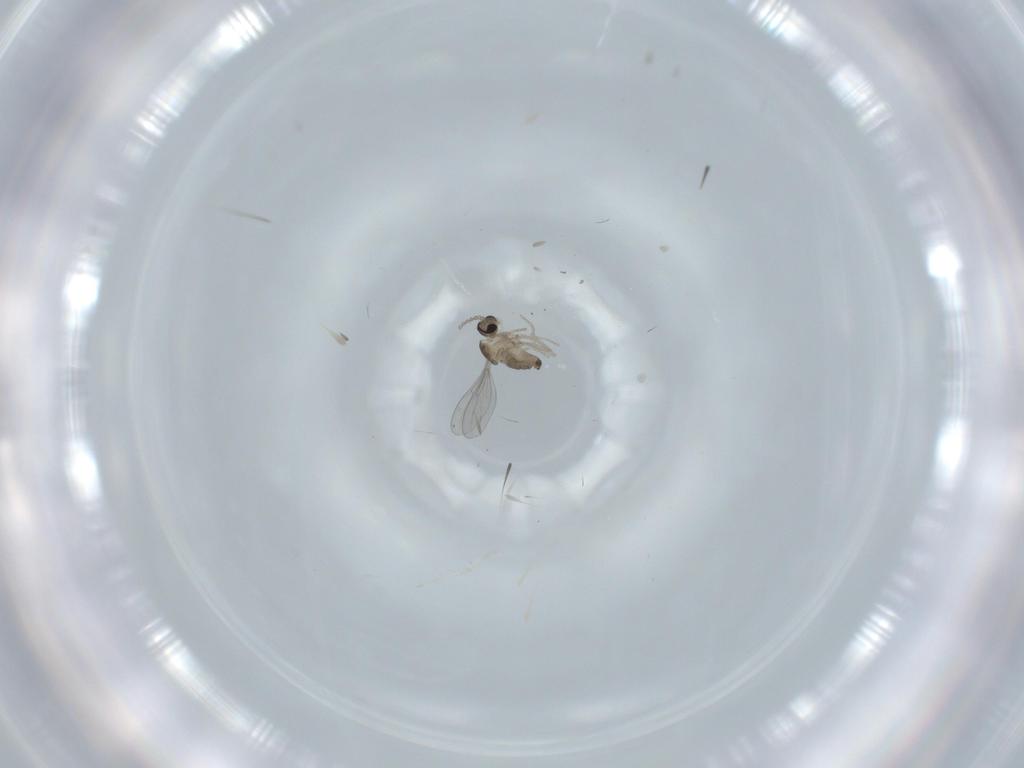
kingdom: Animalia
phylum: Arthropoda
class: Insecta
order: Diptera
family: Cecidomyiidae
